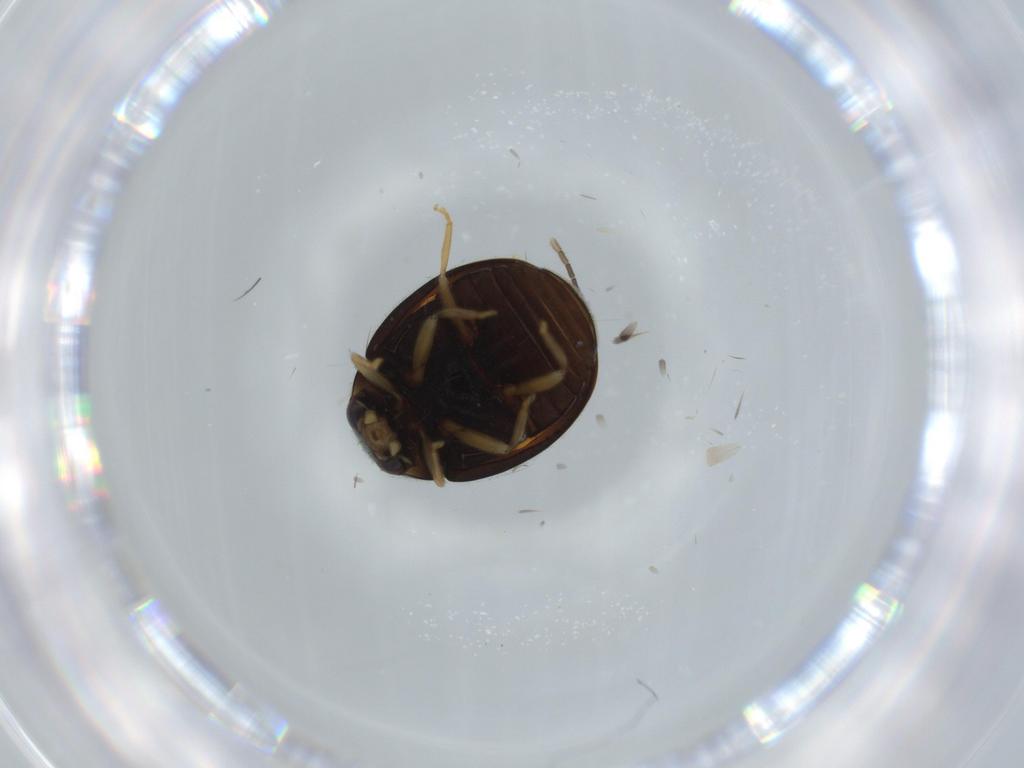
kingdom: Animalia
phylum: Arthropoda
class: Insecta
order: Coleoptera
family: Coccinellidae
